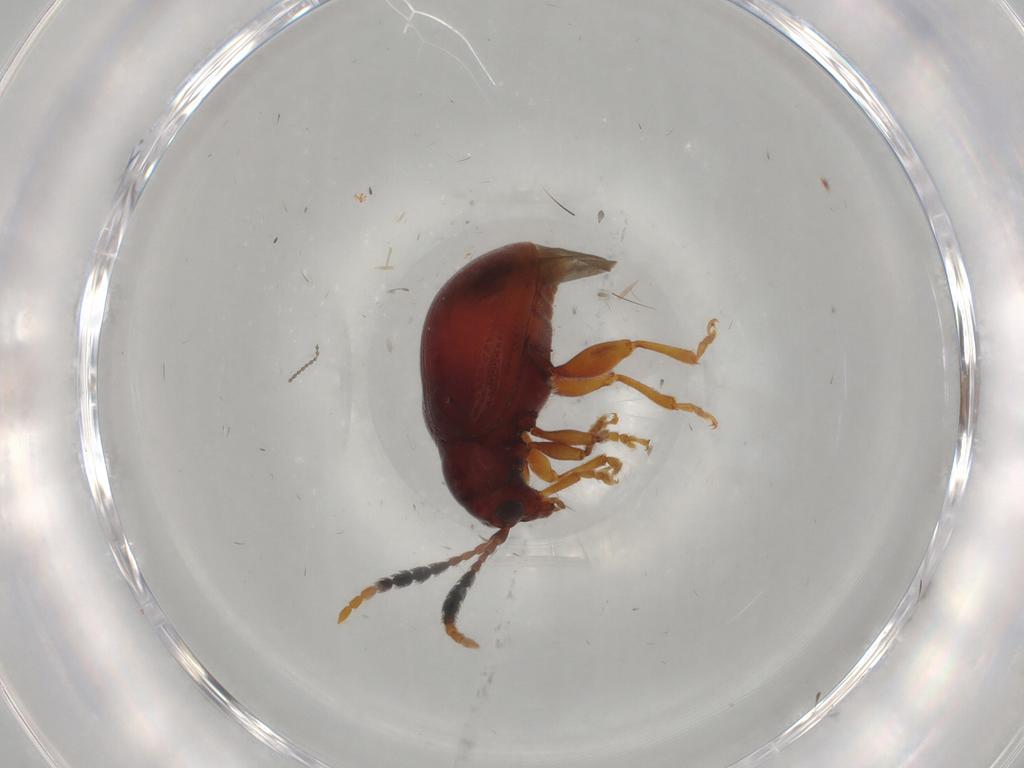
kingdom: Animalia
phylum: Arthropoda
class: Insecta
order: Coleoptera
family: Chrysomelidae
